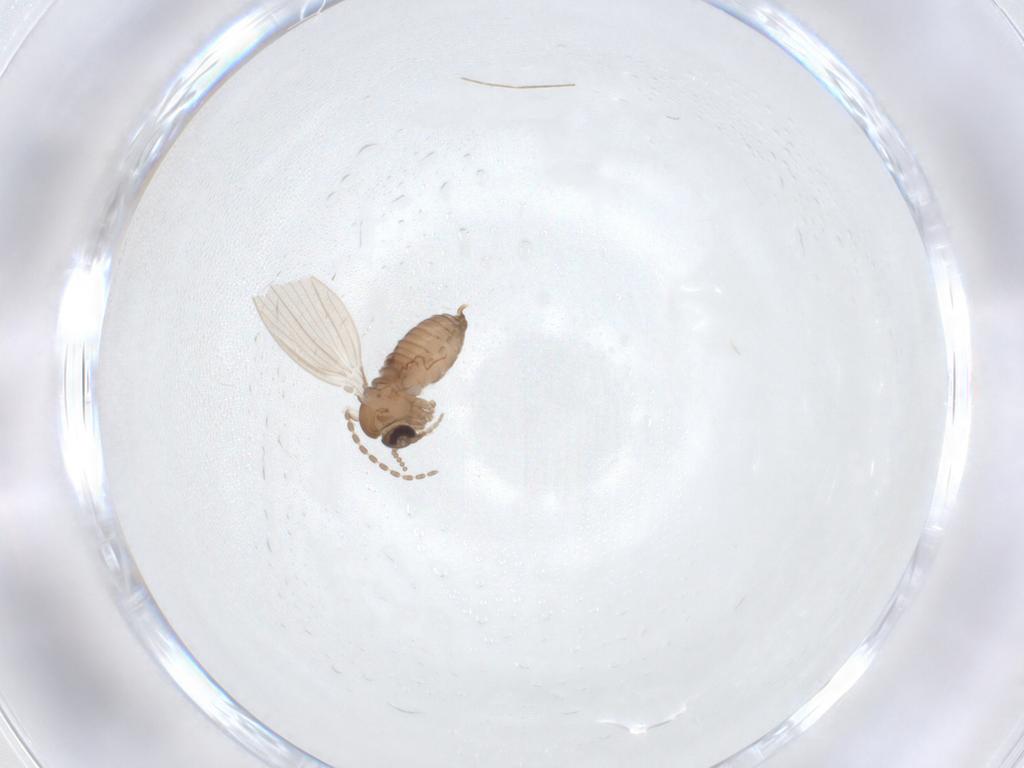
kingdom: Animalia
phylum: Arthropoda
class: Insecta
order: Diptera
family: Psychodidae
